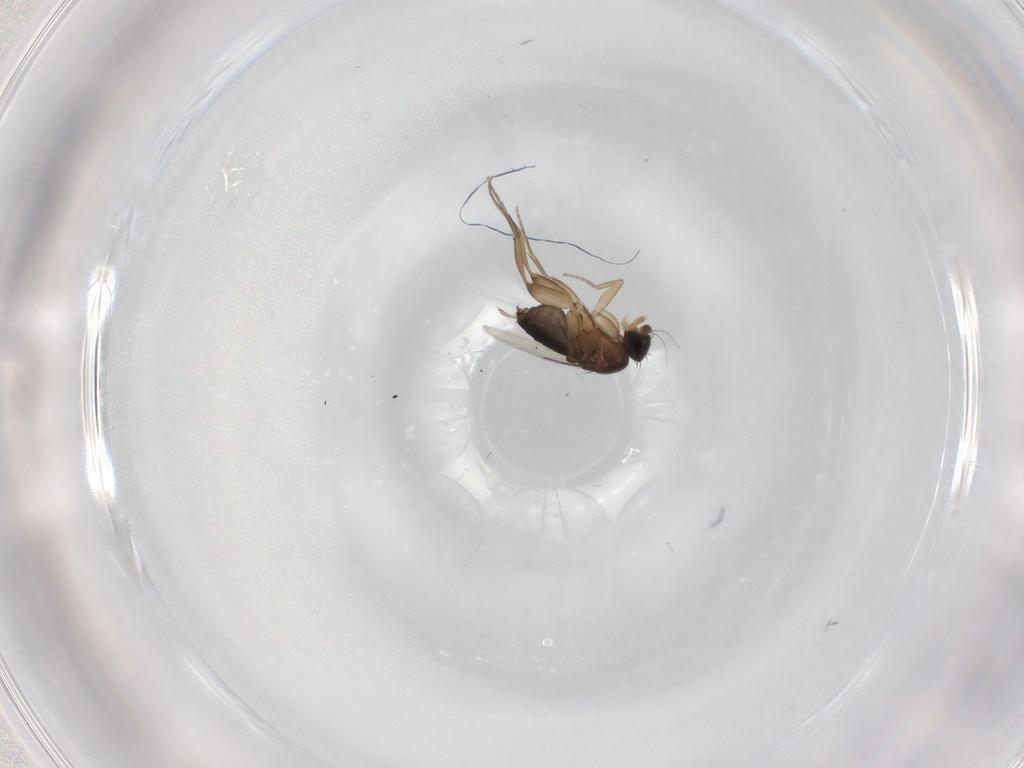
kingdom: Animalia
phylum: Arthropoda
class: Insecta
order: Diptera
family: Phoridae
